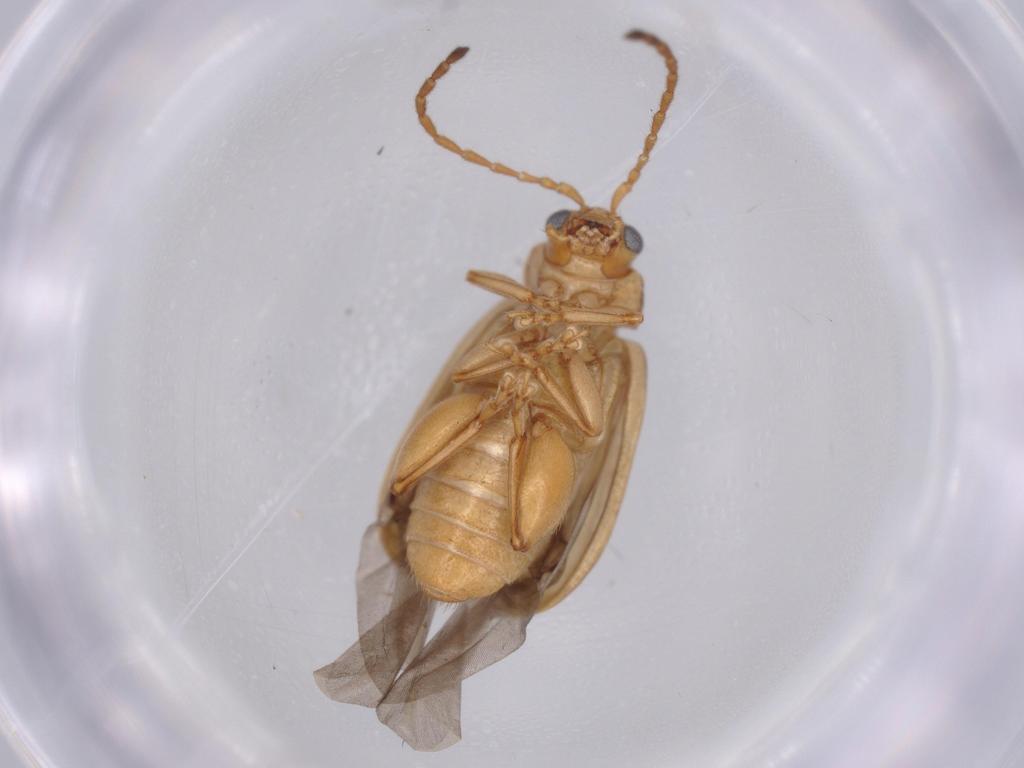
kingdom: Animalia
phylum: Arthropoda
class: Insecta
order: Coleoptera
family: Chrysomelidae
